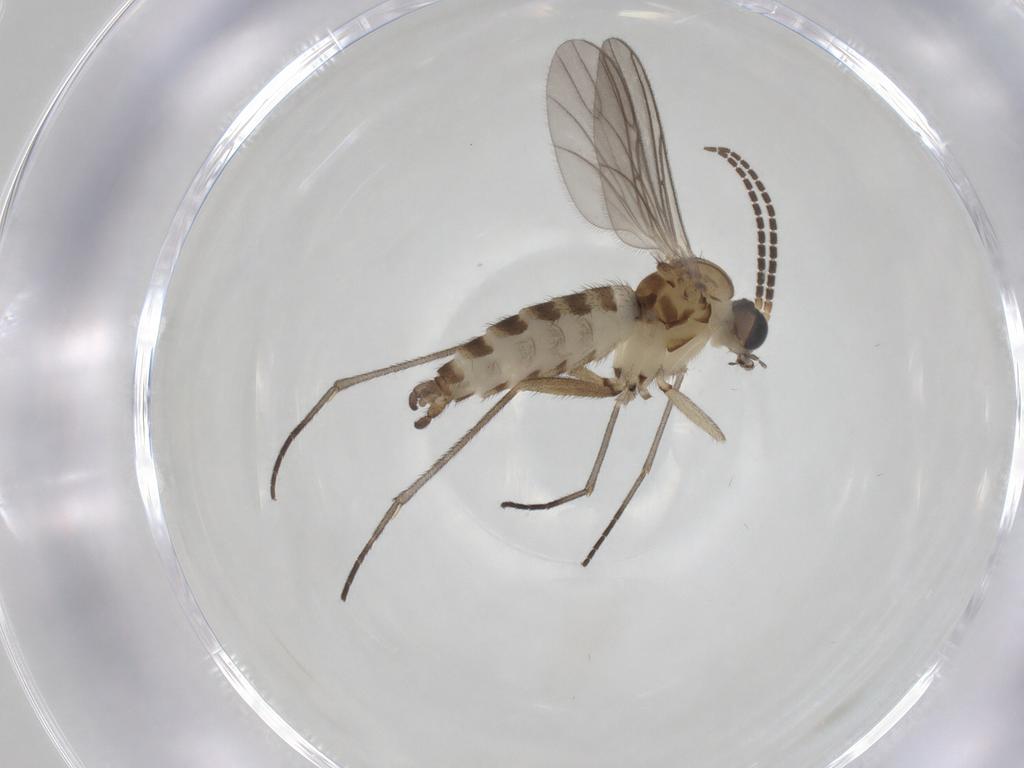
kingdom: Animalia
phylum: Arthropoda
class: Insecta
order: Diptera
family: Sciaridae
